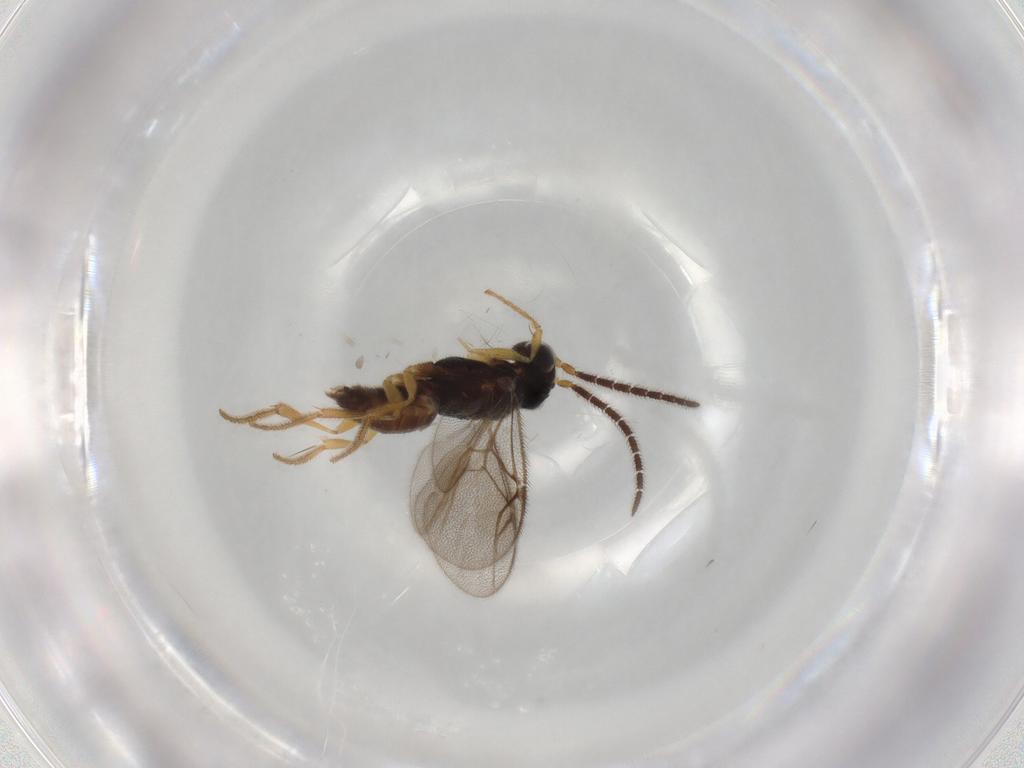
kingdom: Animalia
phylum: Arthropoda
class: Insecta
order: Hymenoptera
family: Dryinidae
